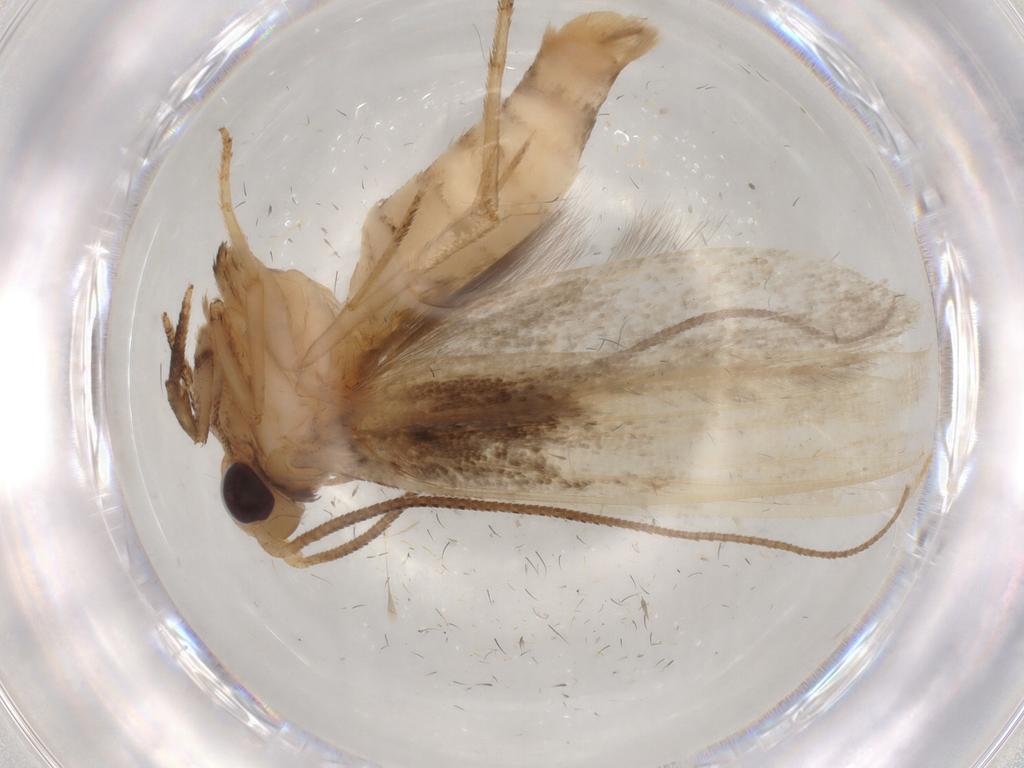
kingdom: Animalia
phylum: Arthropoda
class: Insecta
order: Lepidoptera
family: Yponomeutidae
